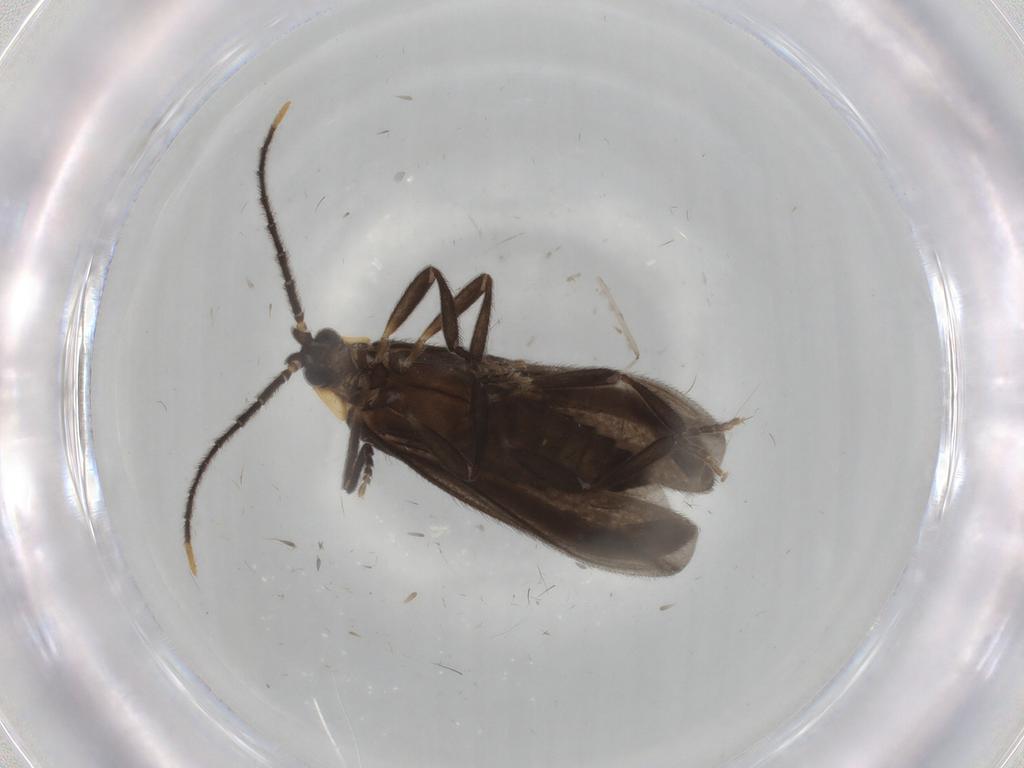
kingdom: Animalia
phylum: Arthropoda
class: Insecta
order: Coleoptera
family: Lycidae
